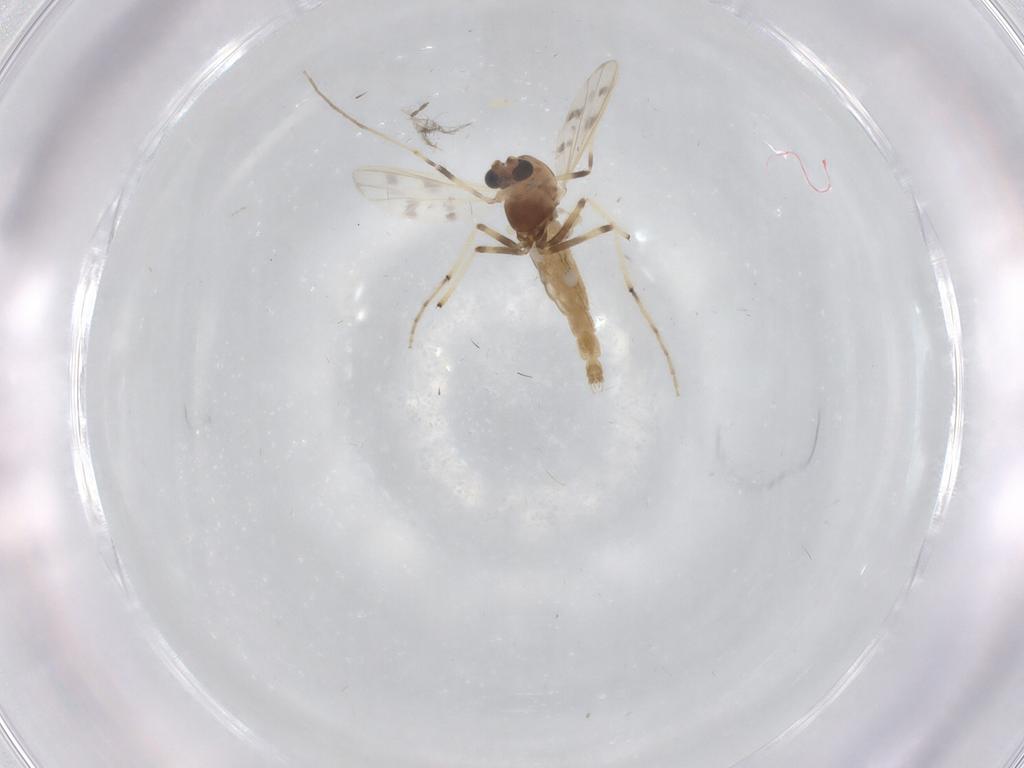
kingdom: Animalia
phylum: Arthropoda
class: Insecta
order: Diptera
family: Chironomidae
